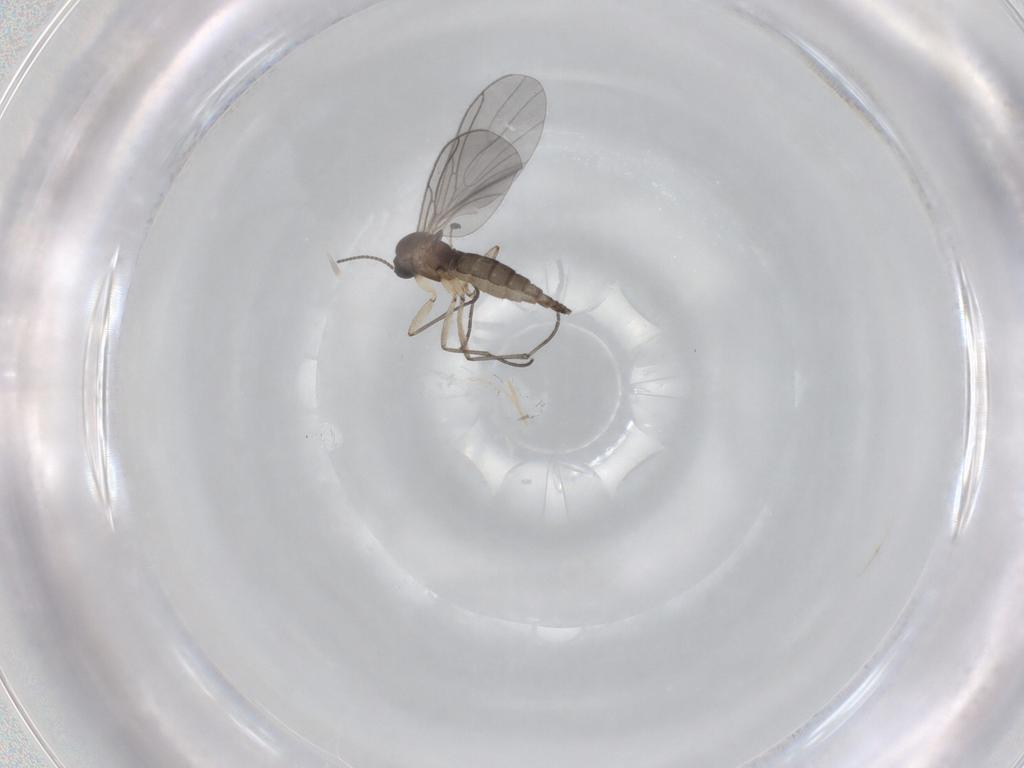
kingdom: Animalia
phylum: Arthropoda
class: Insecta
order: Diptera
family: Sciaridae
